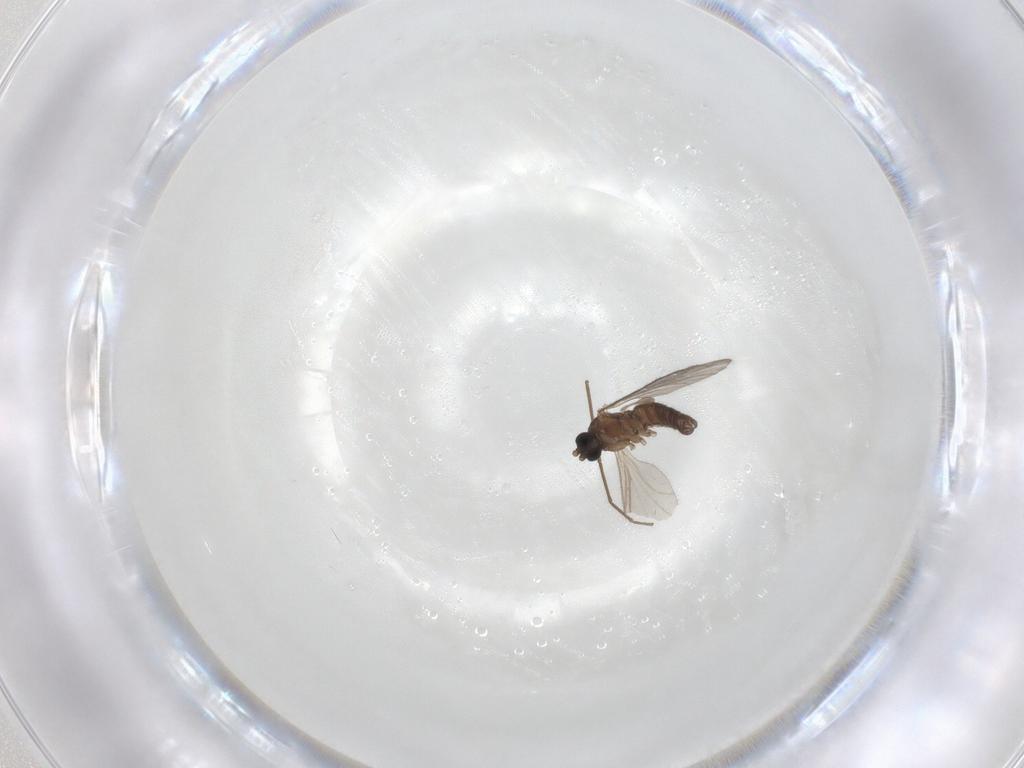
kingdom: Animalia
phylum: Arthropoda
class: Insecta
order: Diptera
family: Sciaridae
